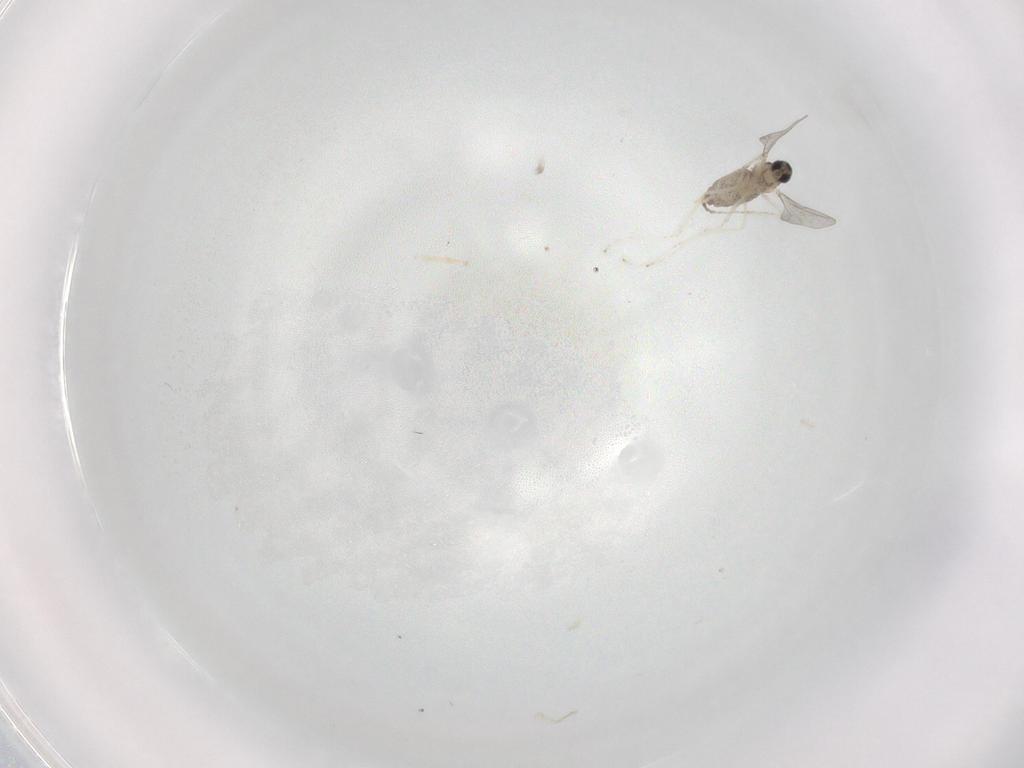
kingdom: Animalia
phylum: Arthropoda
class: Insecta
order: Diptera
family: Cecidomyiidae
